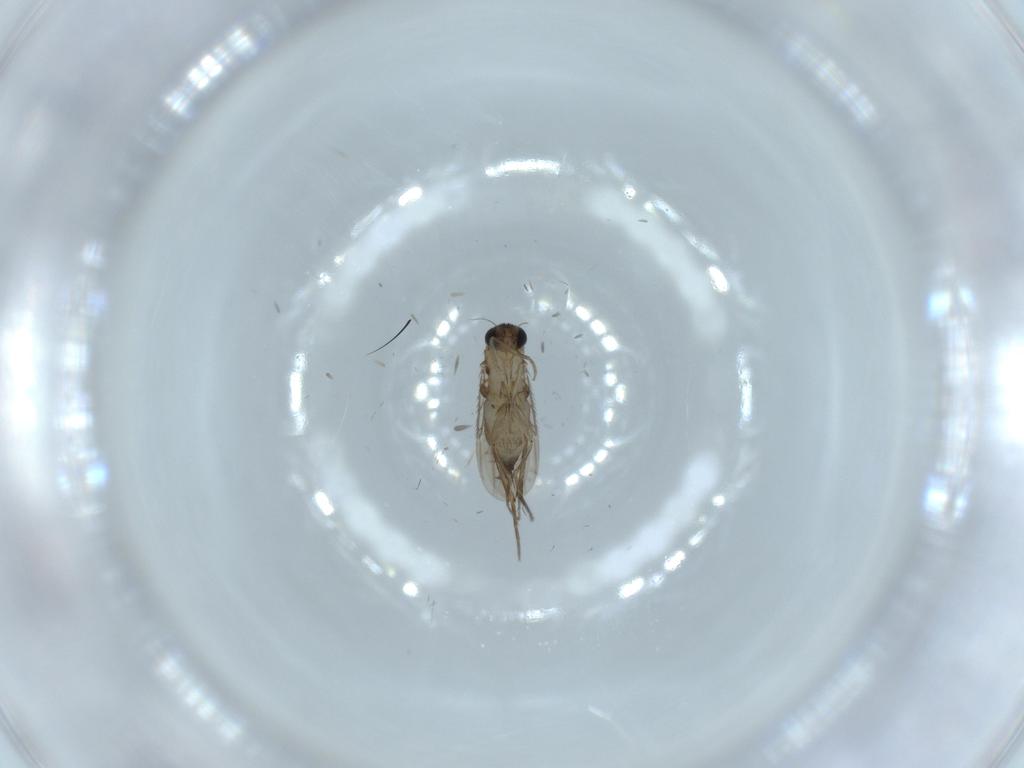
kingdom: Animalia
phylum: Arthropoda
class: Insecta
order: Diptera
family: Phoridae
